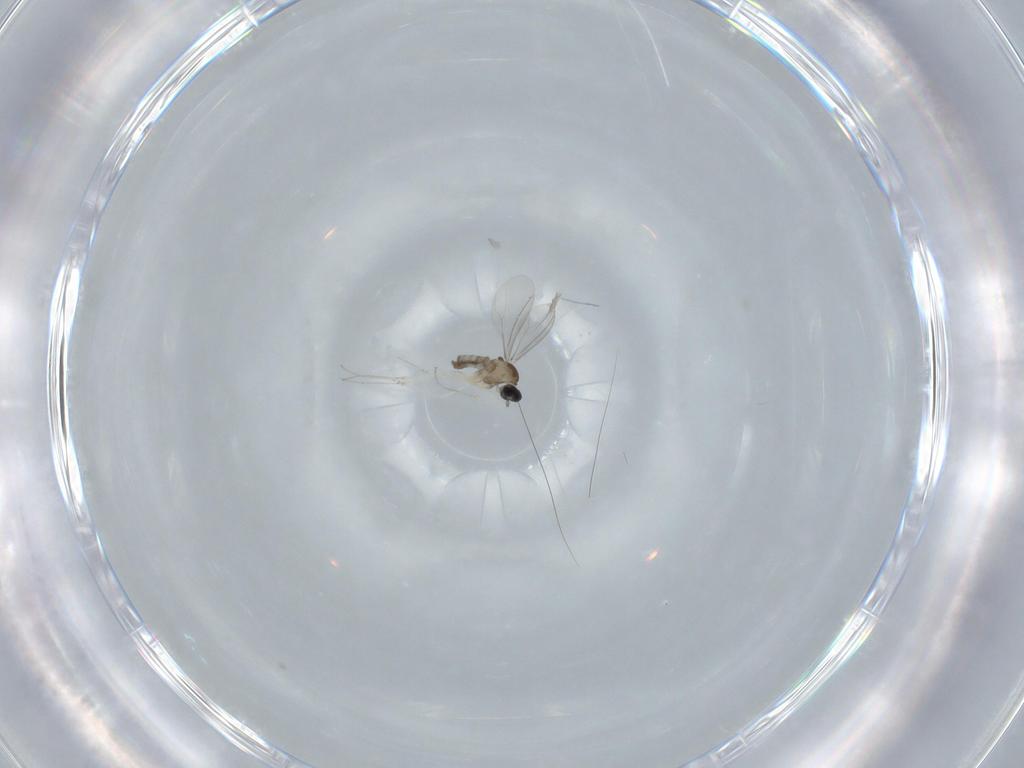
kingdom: Animalia
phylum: Arthropoda
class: Insecta
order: Diptera
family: Cecidomyiidae
